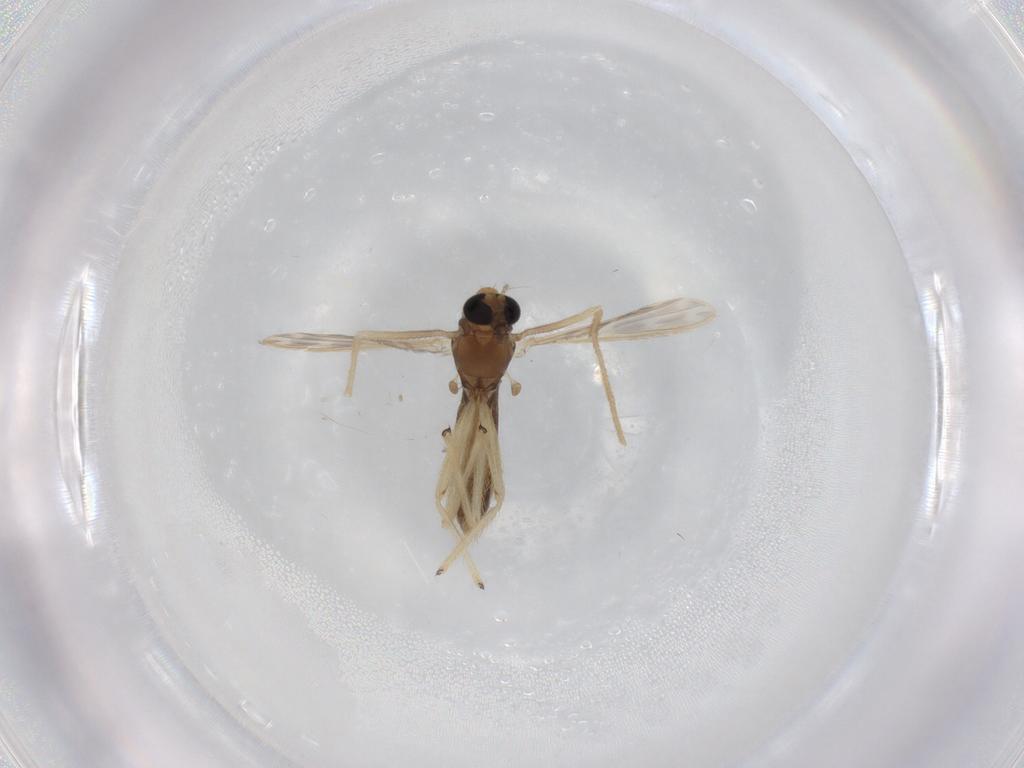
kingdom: Animalia
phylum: Arthropoda
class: Insecta
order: Diptera
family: Chironomidae
